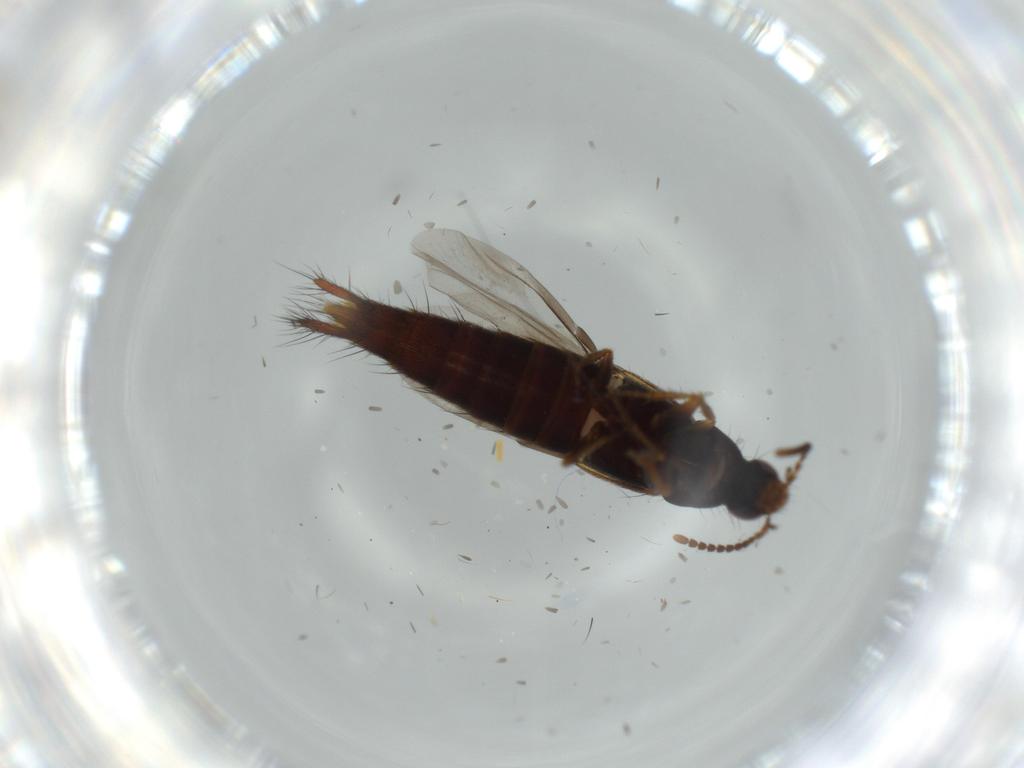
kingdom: Animalia
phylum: Arthropoda
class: Insecta
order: Coleoptera
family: Staphylinidae
